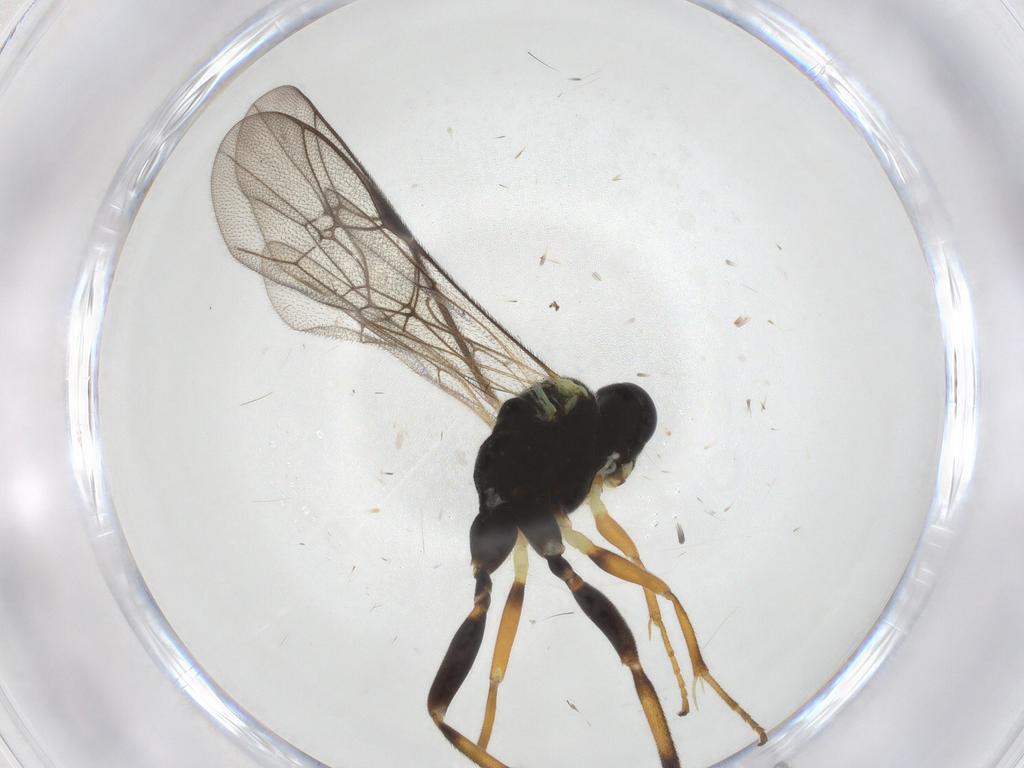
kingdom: Animalia
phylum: Arthropoda
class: Insecta
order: Hymenoptera
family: Ichneumonidae
